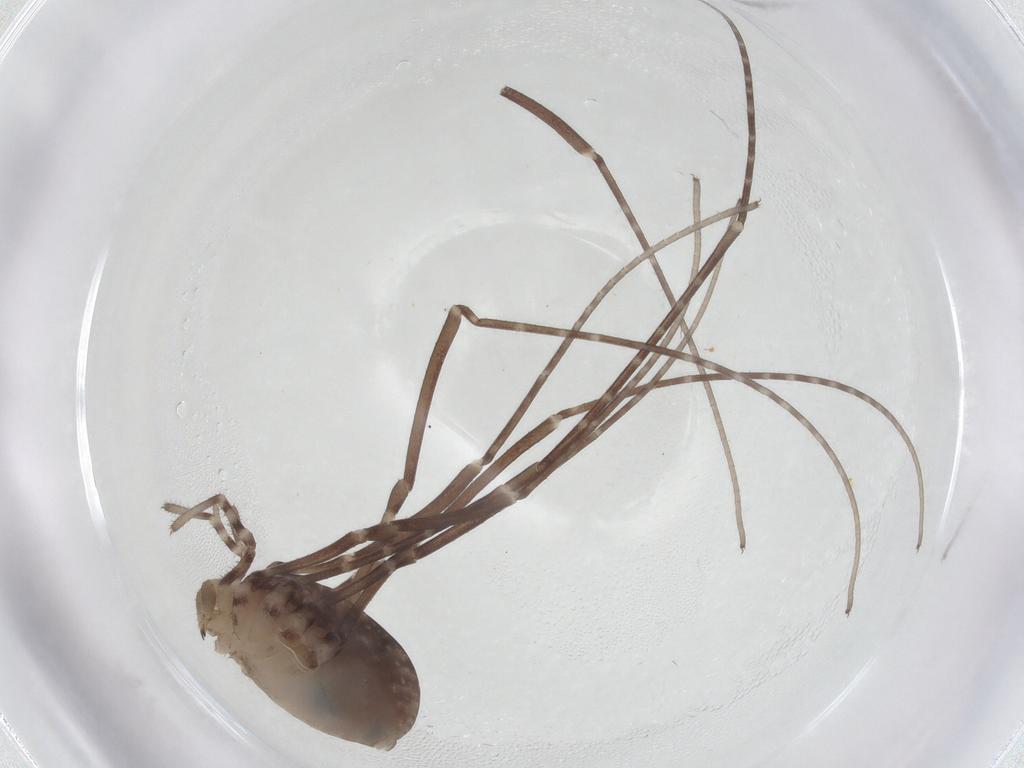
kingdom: Animalia
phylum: Arthropoda
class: Arachnida
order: Opiliones
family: Sclerosomatidae
